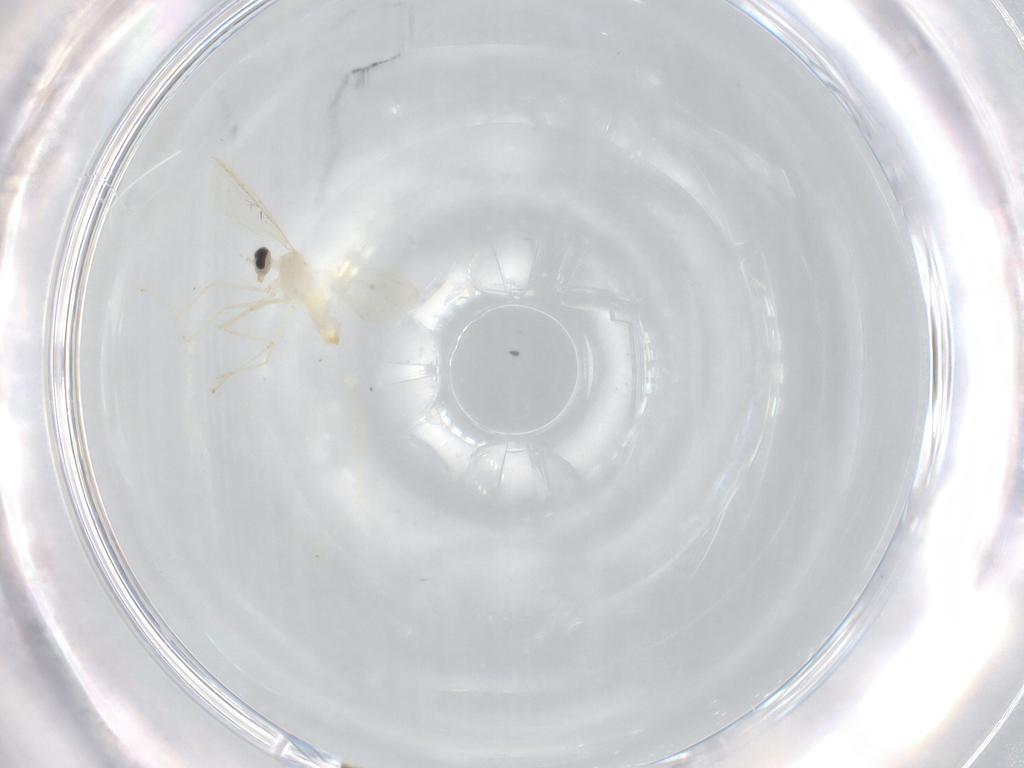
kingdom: Animalia
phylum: Arthropoda
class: Insecta
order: Diptera
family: Cecidomyiidae
